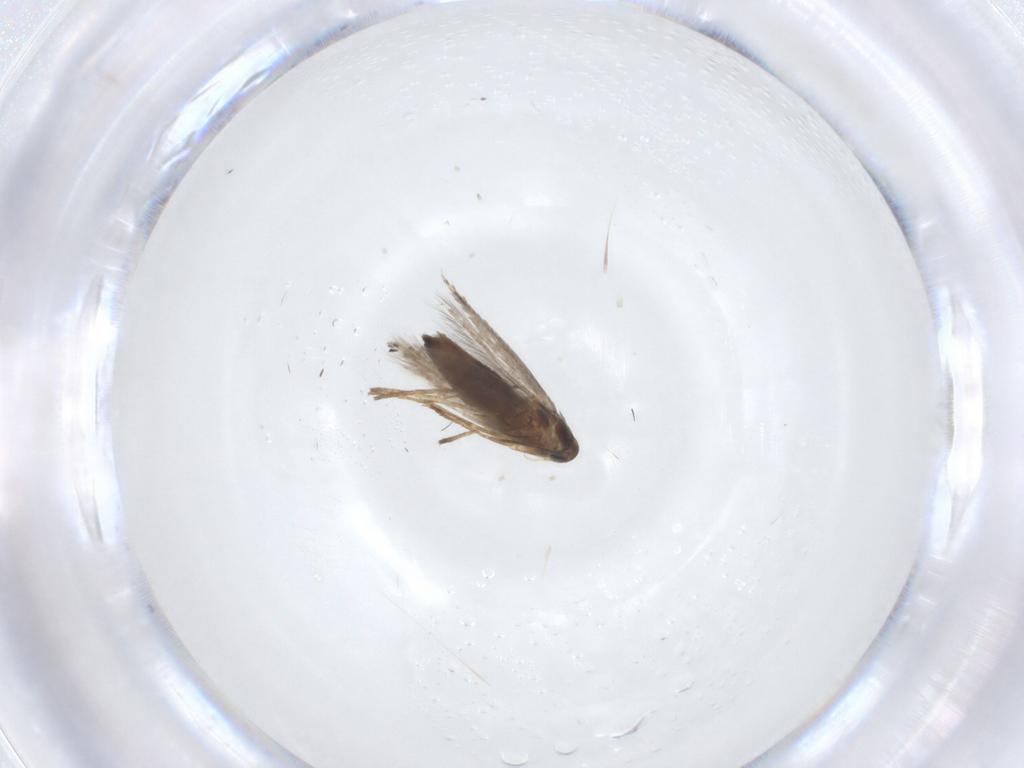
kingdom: Animalia
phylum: Arthropoda
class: Insecta
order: Lepidoptera
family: Heliozelidae
